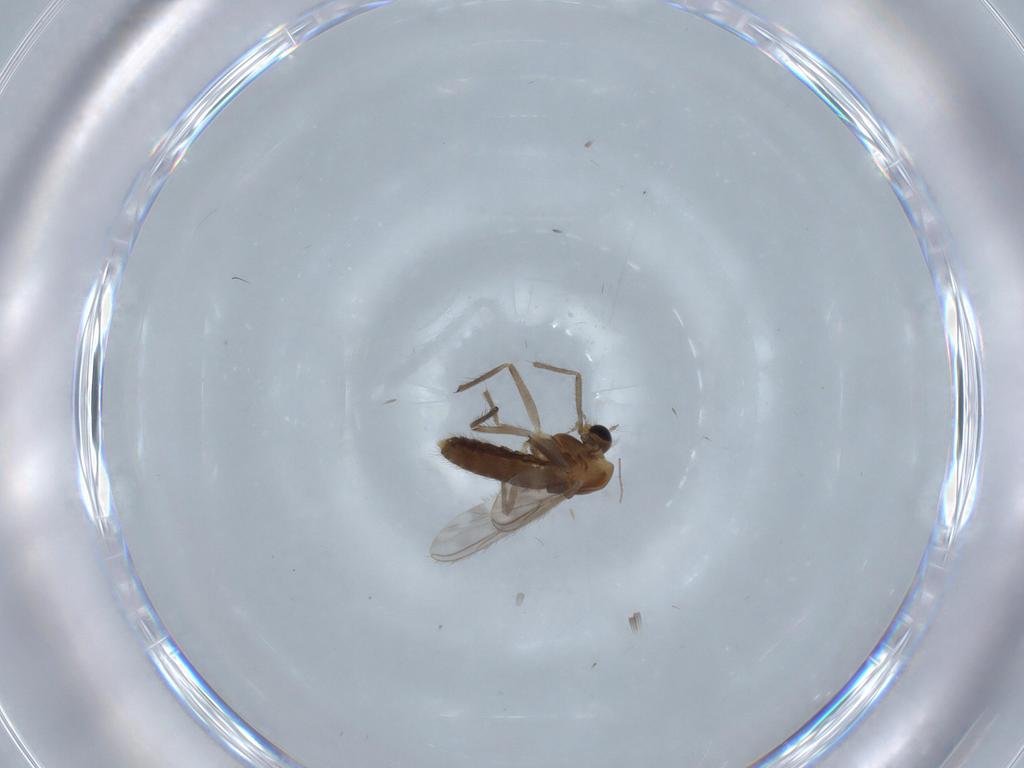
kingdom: Animalia
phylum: Arthropoda
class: Insecta
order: Diptera
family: Chironomidae
